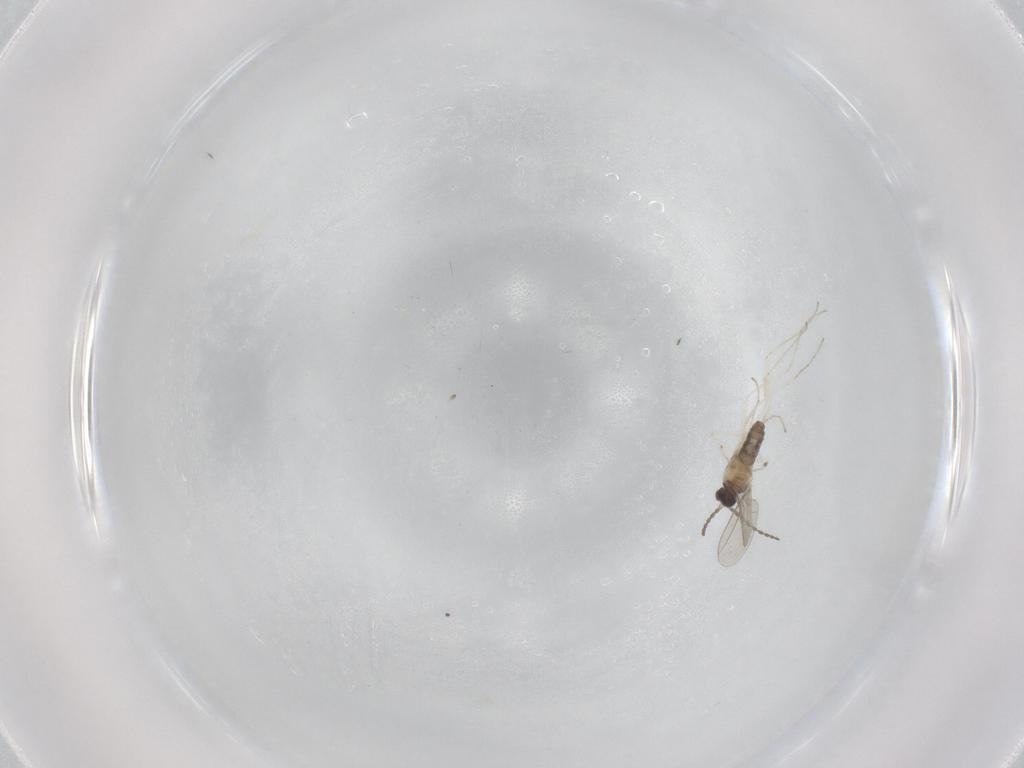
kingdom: Animalia
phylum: Arthropoda
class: Insecta
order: Diptera
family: Cecidomyiidae
